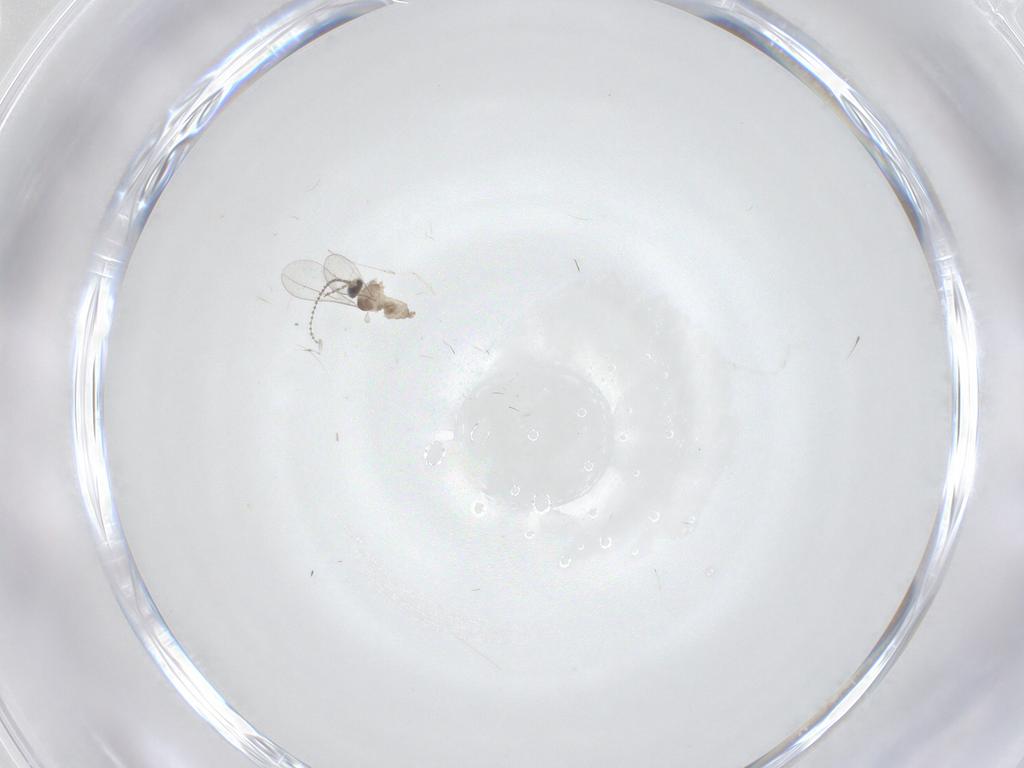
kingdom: Animalia
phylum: Arthropoda
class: Insecta
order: Diptera
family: Cecidomyiidae
